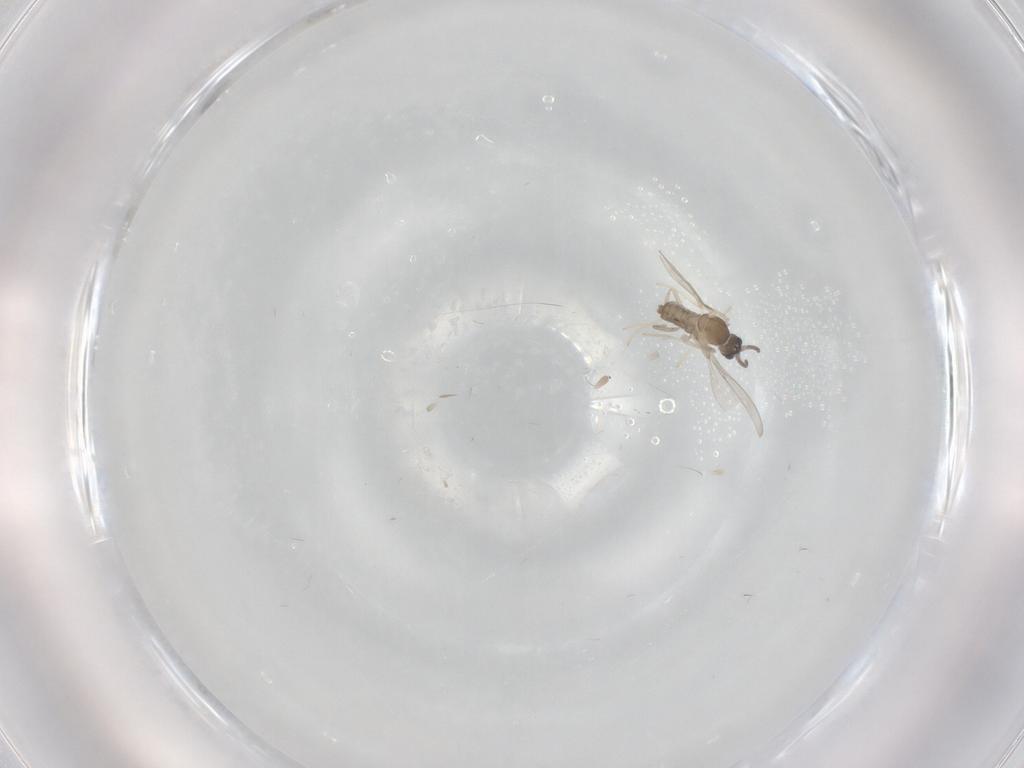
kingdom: Animalia
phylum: Arthropoda
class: Insecta
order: Diptera
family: Cecidomyiidae
